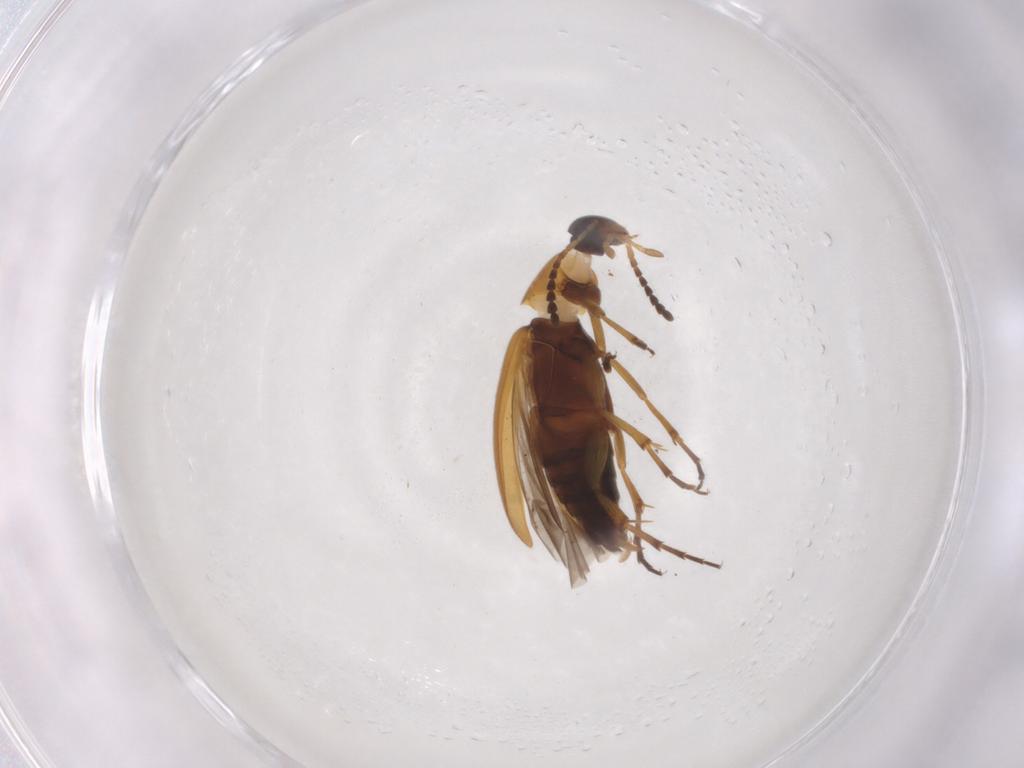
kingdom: Animalia
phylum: Arthropoda
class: Insecta
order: Coleoptera
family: Scraptiidae
